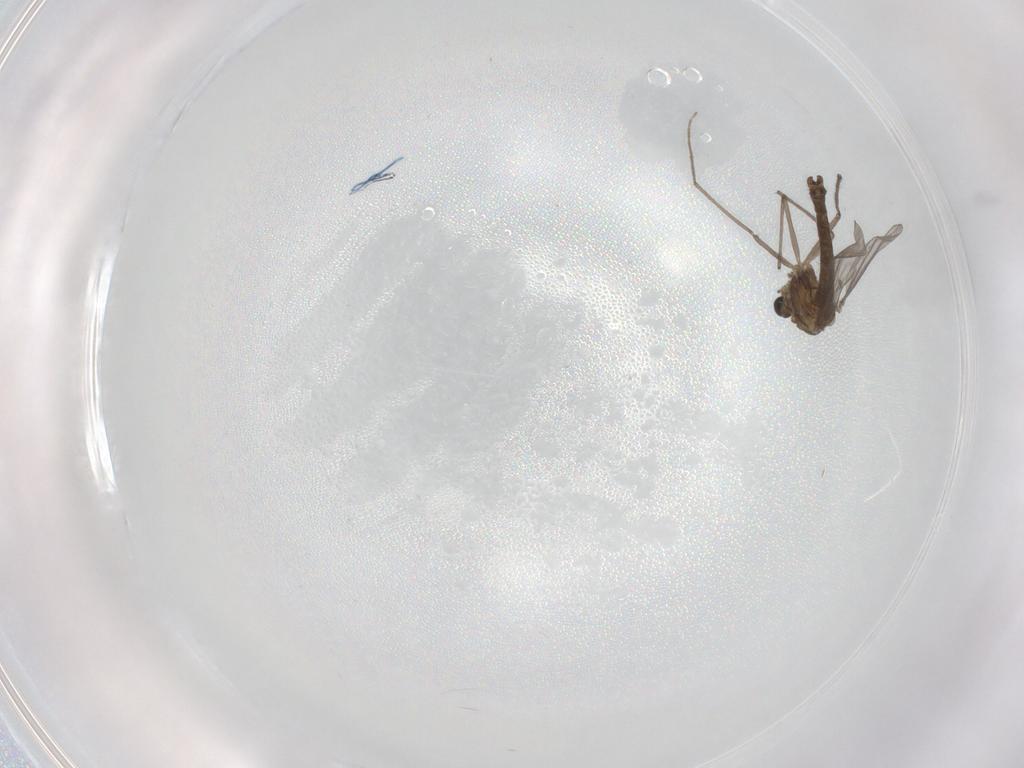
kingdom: Animalia
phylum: Arthropoda
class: Insecta
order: Diptera
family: Chironomidae
